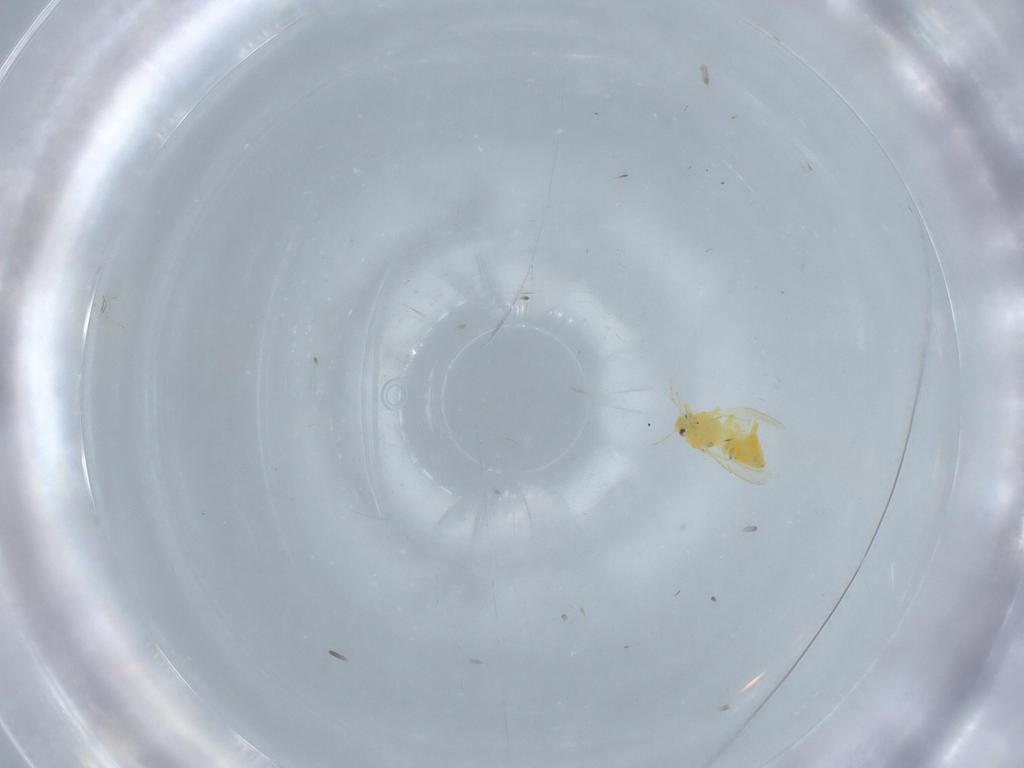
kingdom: Animalia
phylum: Arthropoda
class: Insecta
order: Hemiptera
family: Aleyrodidae
